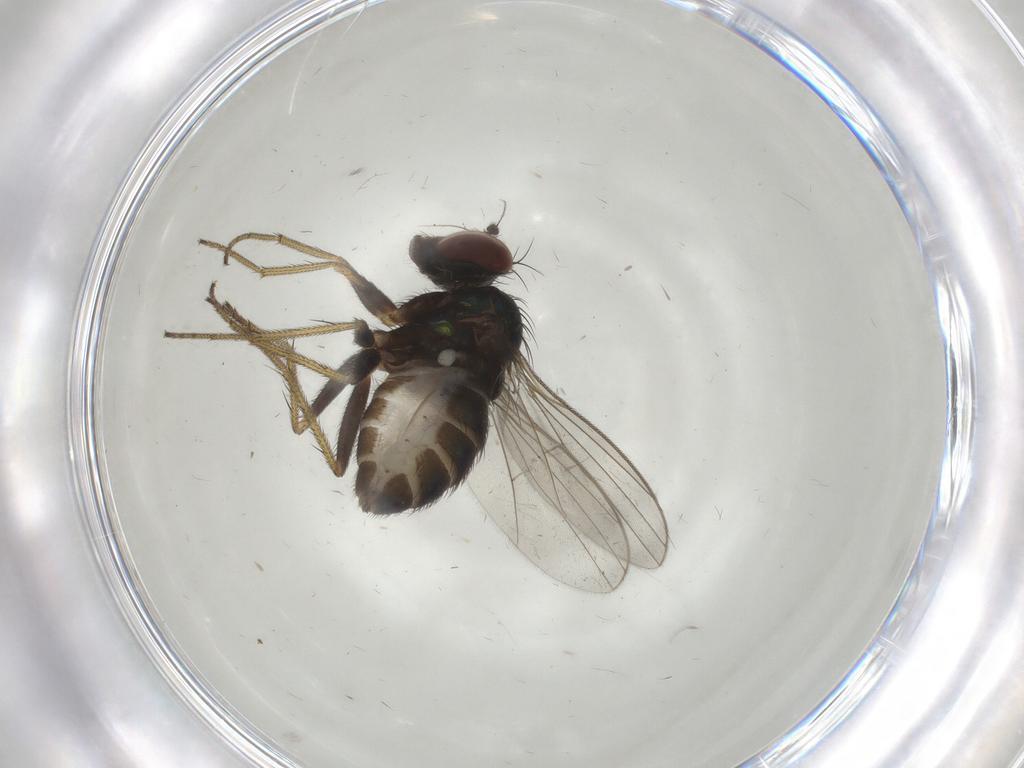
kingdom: Animalia
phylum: Arthropoda
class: Insecta
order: Diptera
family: Dolichopodidae
